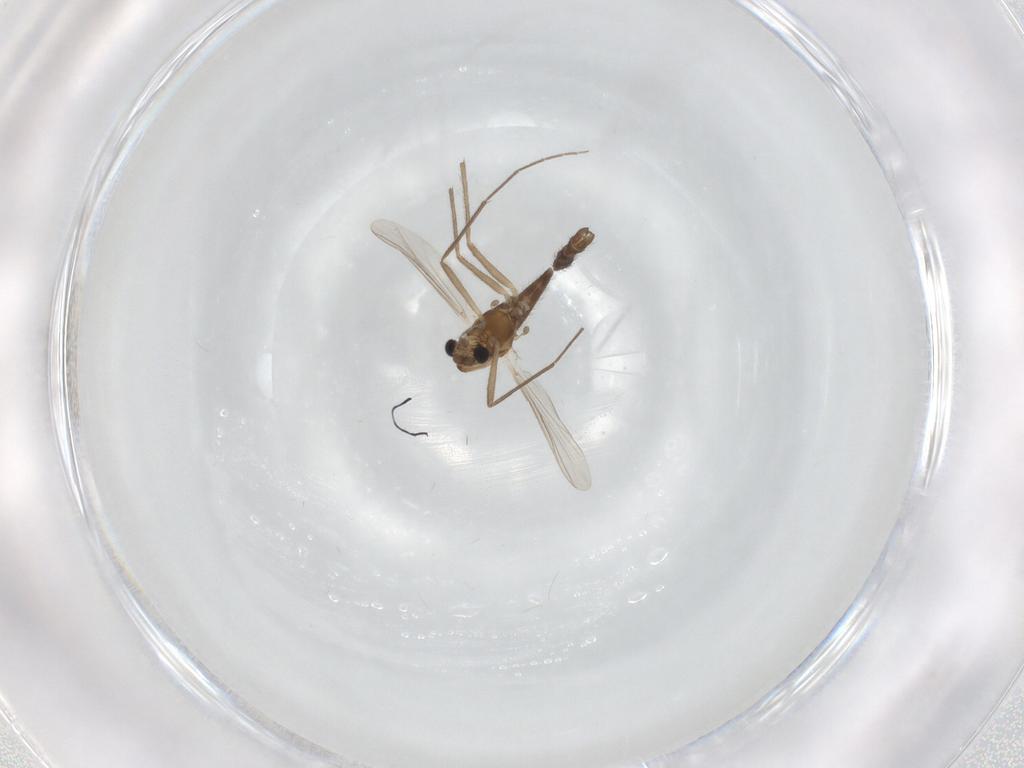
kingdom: Animalia
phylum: Arthropoda
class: Insecta
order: Diptera
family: Chironomidae
